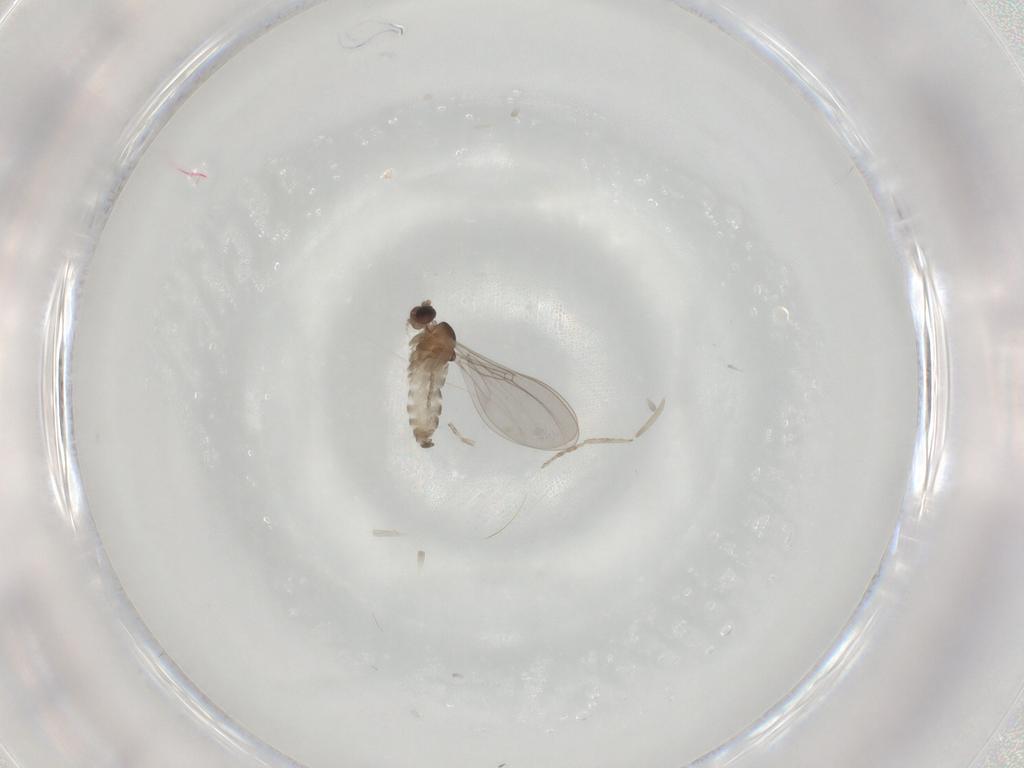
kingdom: Animalia
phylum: Arthropoda
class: Insecta
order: Diptera
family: Cecidomyiidae
